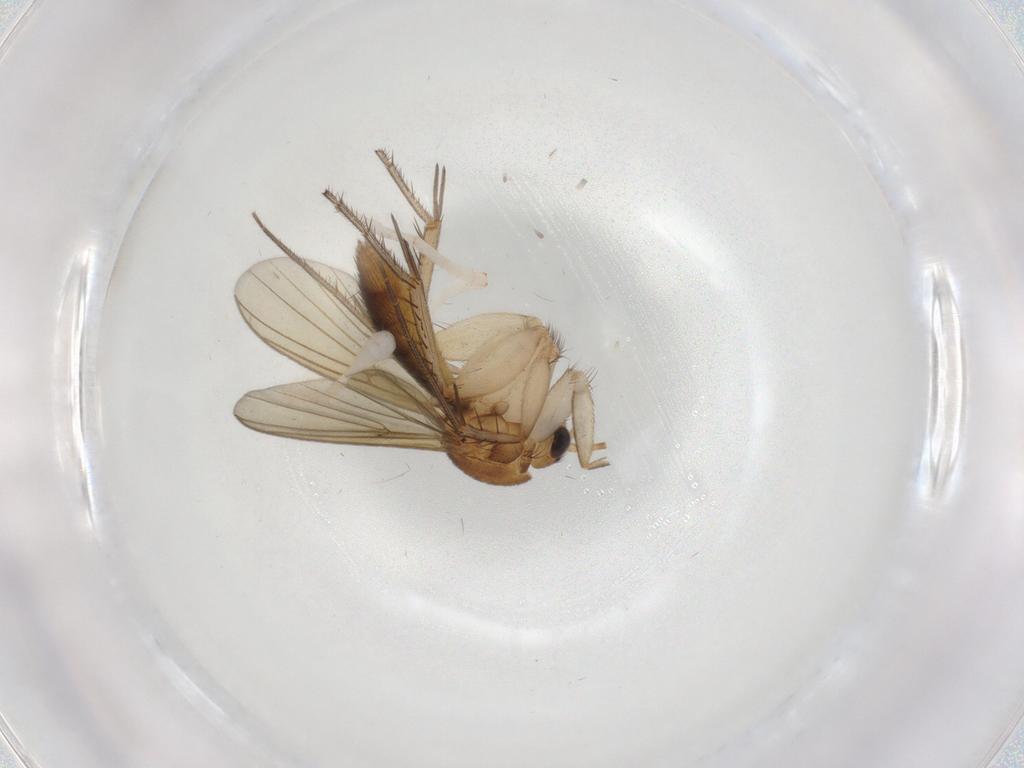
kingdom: Animalia
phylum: Arthropoda
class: Insecta
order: Diptera
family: Mycetophilidae
